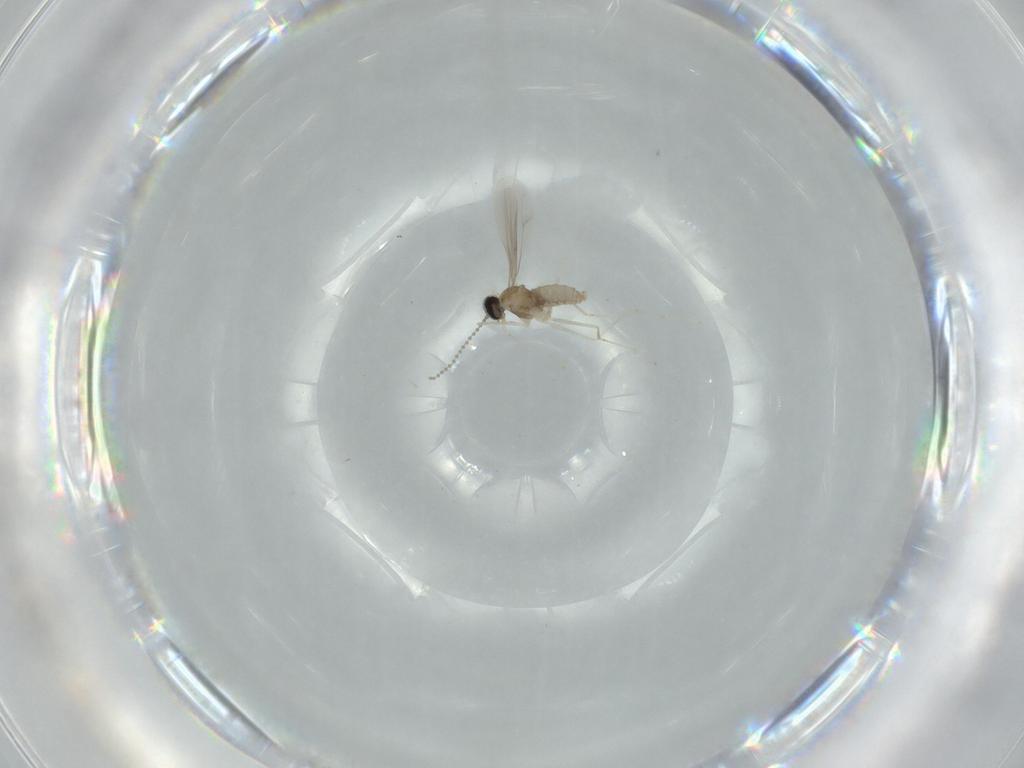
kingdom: Animalia
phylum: Arthropoda
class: Insecta
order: Diptera
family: Cecidomyiidae
